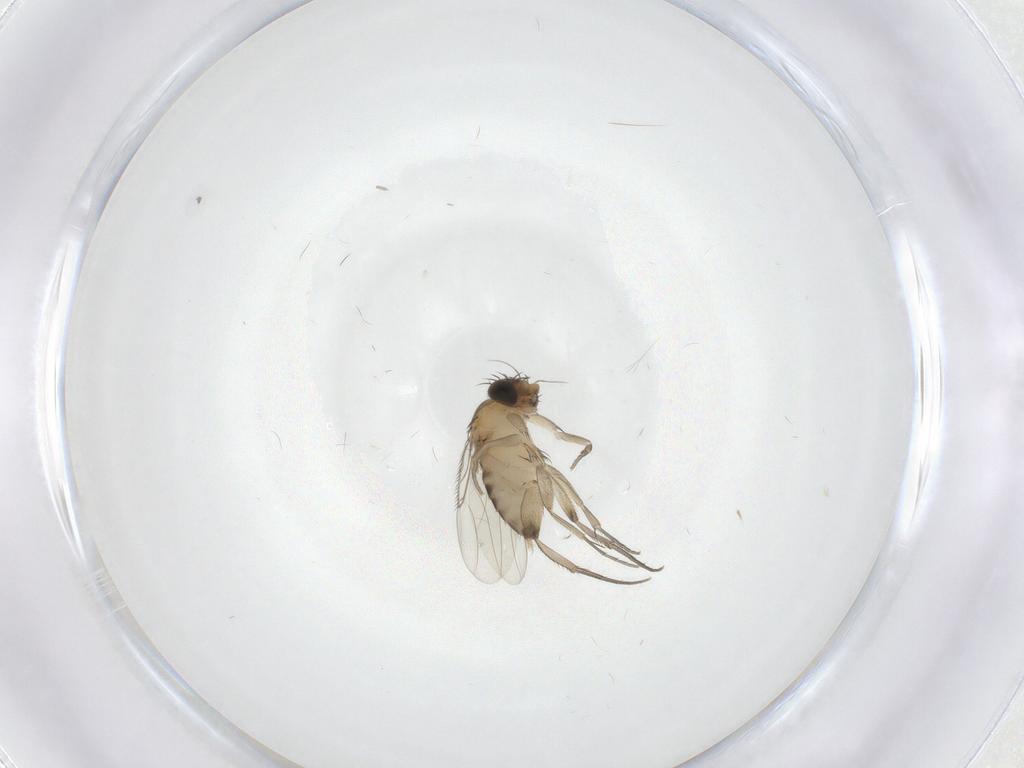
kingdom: Animalia
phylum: Arthropoda
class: Insecta
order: Diptera
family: Phoridae
